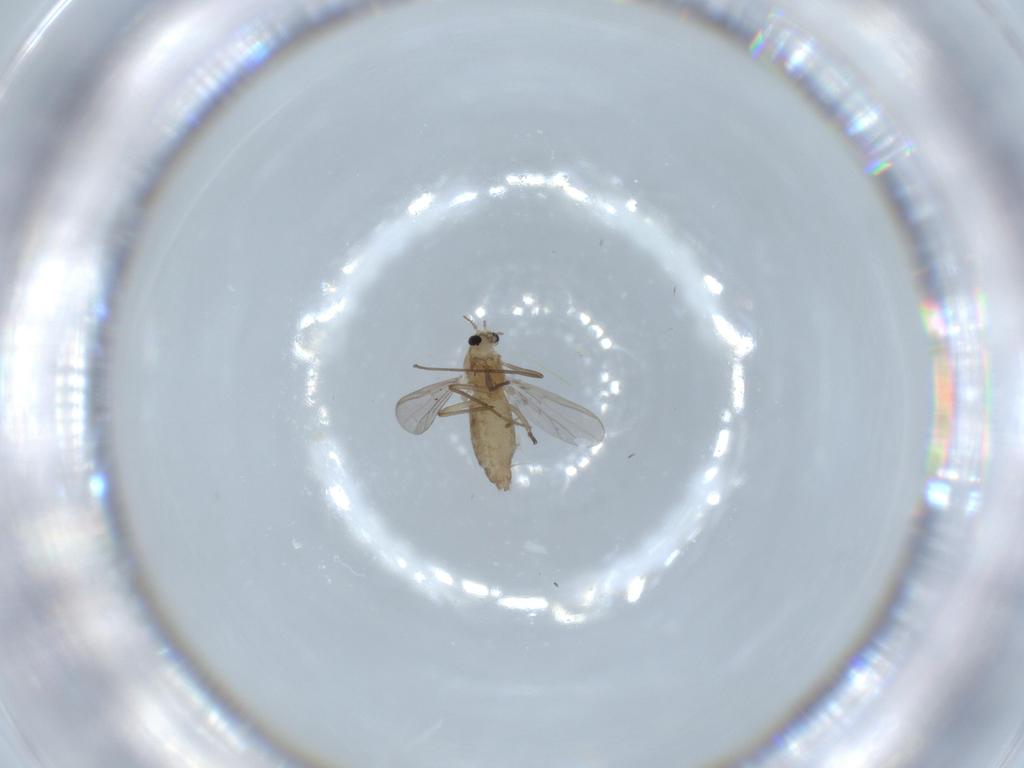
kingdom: Animalia
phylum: Arthropoda
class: Insecta
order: Diptera
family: Chironomidae
